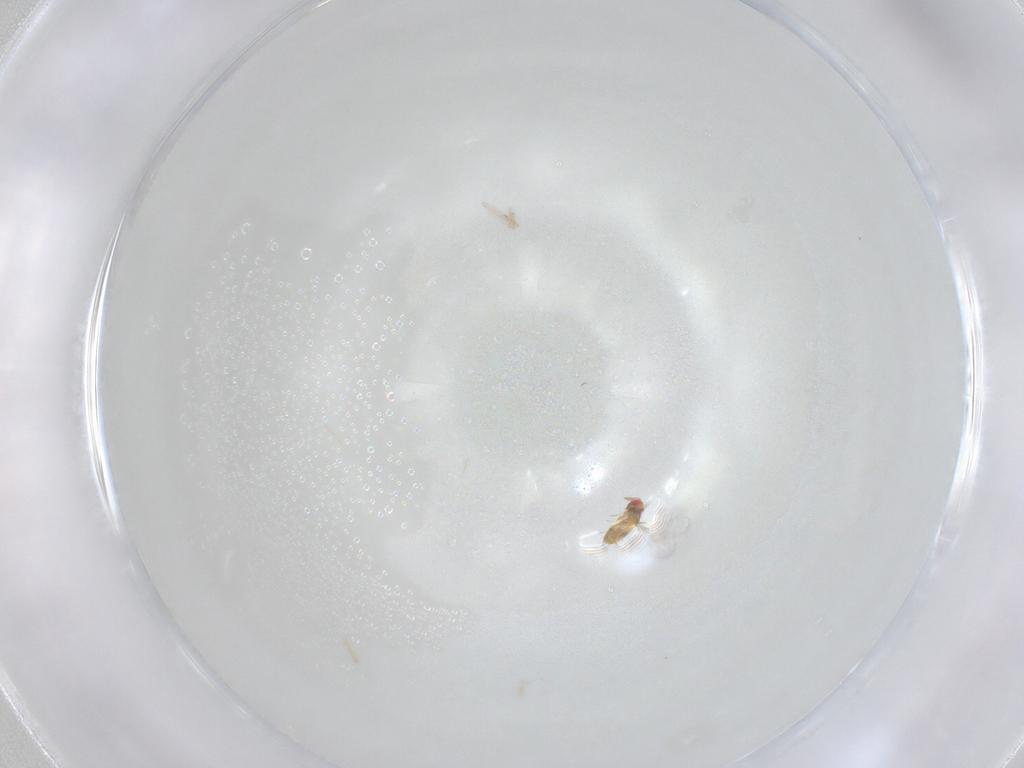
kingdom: Animalia
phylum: Arthropoda
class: Insecta
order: Hymenoptera
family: Trichogrammatidae
